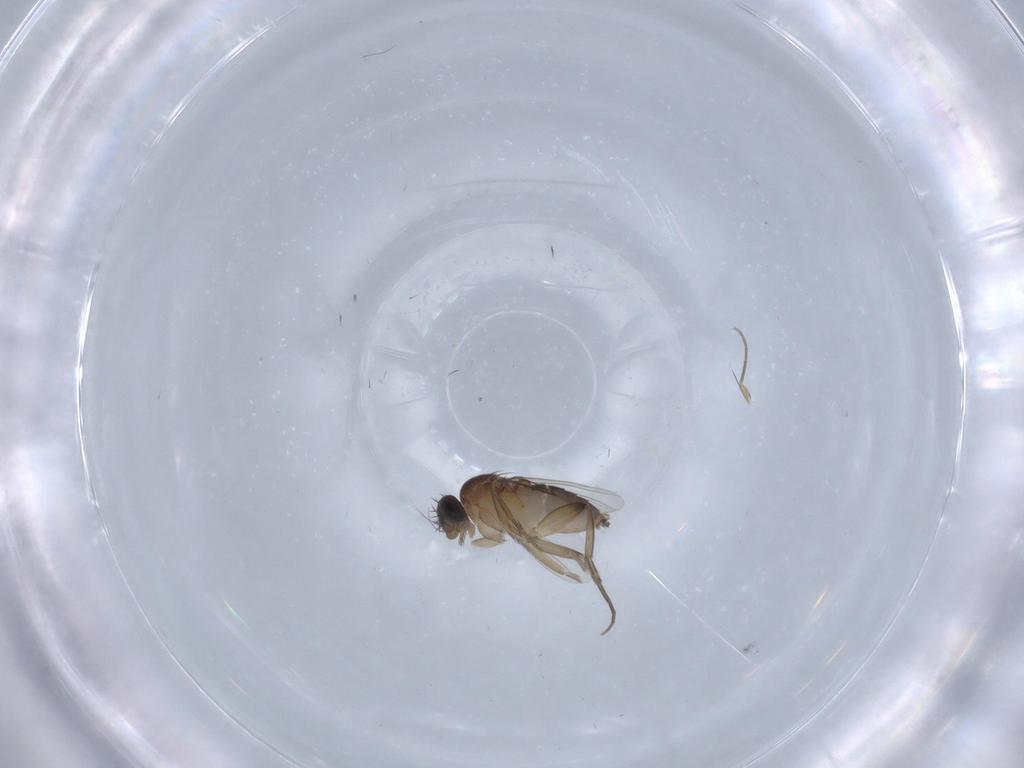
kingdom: Animalia
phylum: Arthropoda
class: Insecta
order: Diptera
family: Phoridae
